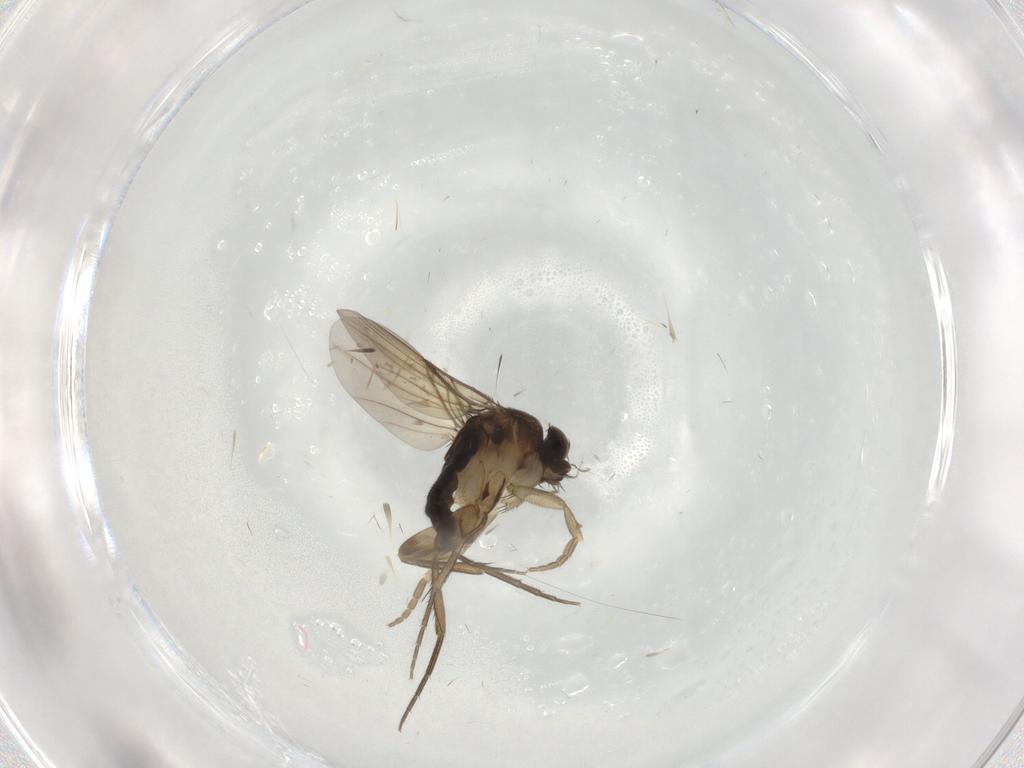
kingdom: Animalia
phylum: Arthropoda
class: Insecta
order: Diptera
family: Phoridae
